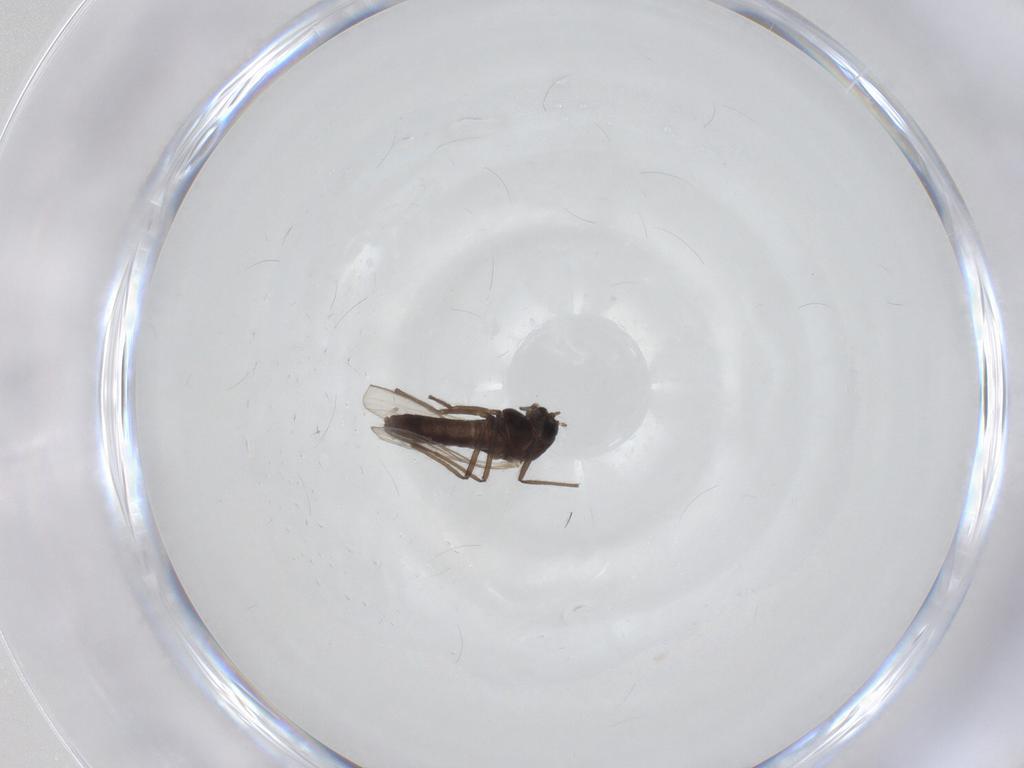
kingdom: Animalia
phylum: Arthropoda
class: Insecta
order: Diptera
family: Chironomidae
